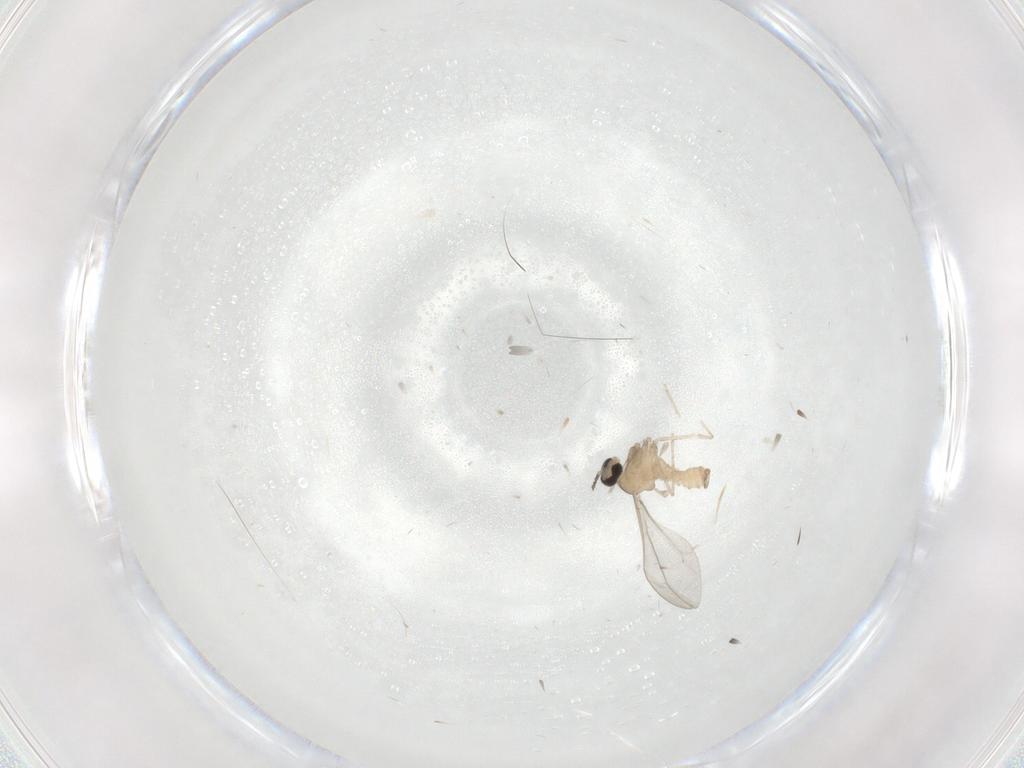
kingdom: Animalia
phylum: Arthropoda
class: Insecta
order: Diptera
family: Cecidomyiidae
